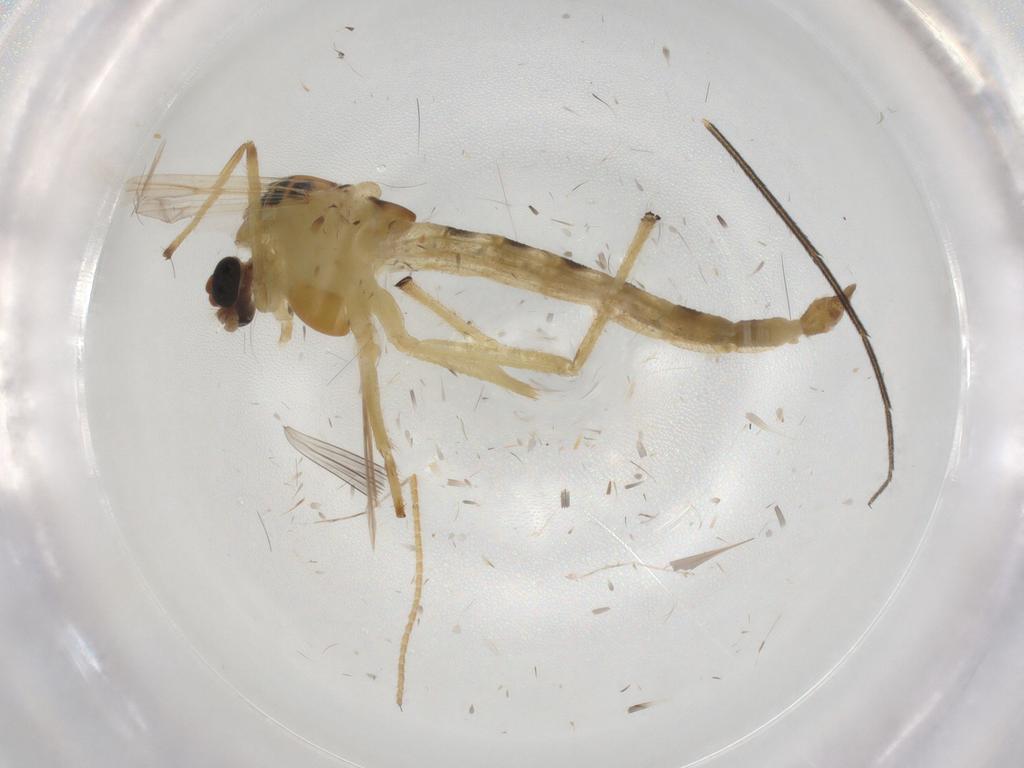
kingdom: Animalia
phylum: Arthropoda
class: Insecta
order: Diptera
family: Chironomidae
